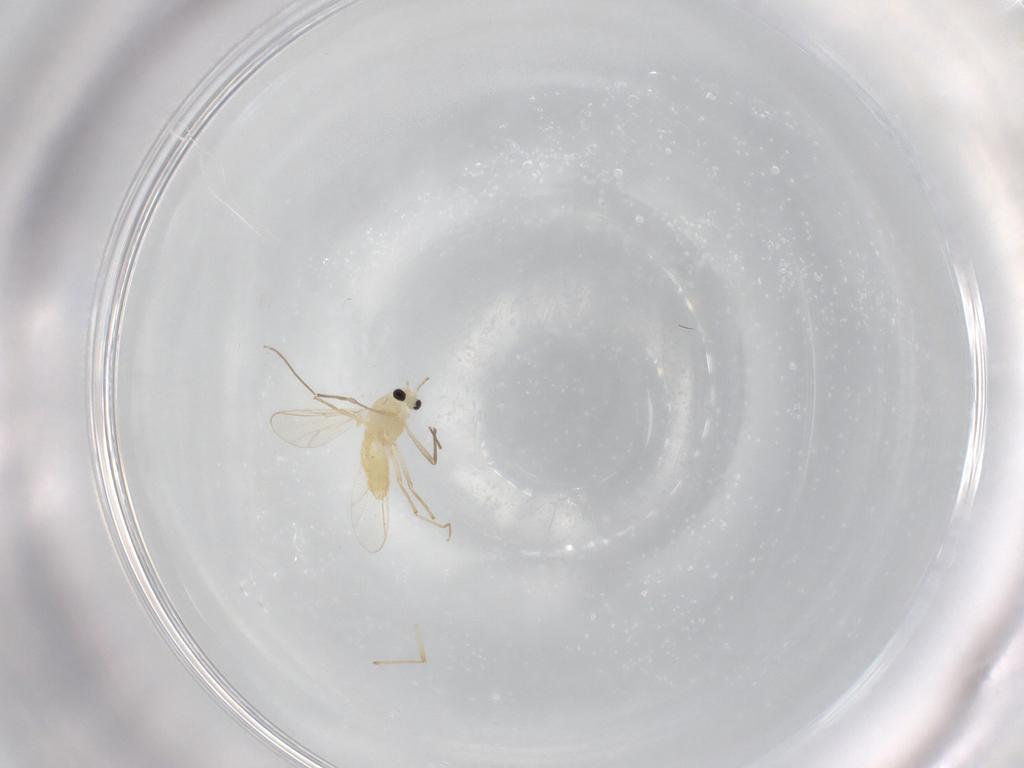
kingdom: Animalia
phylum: Arthropoda
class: Insecta
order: Diptera
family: Chironomidae
